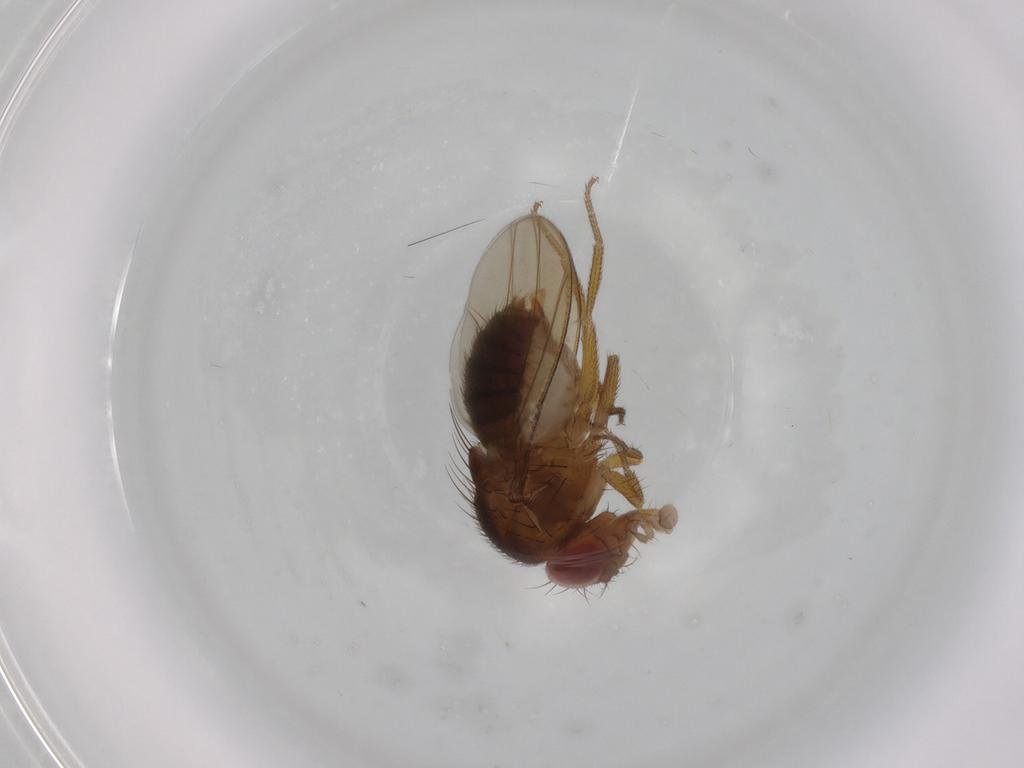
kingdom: Animalia
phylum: Arthropoda
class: Insecta
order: Diptera
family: Drosophilidae
